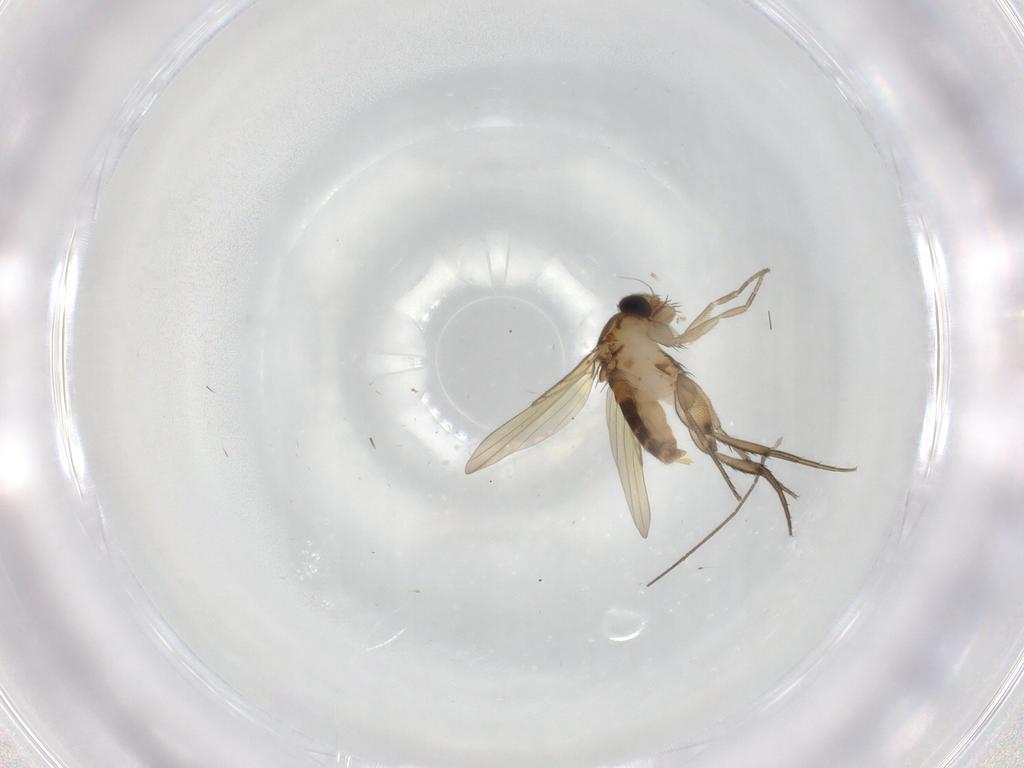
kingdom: Animalia
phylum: Arthropoda
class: Insecta
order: Diptera
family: Phoridae
